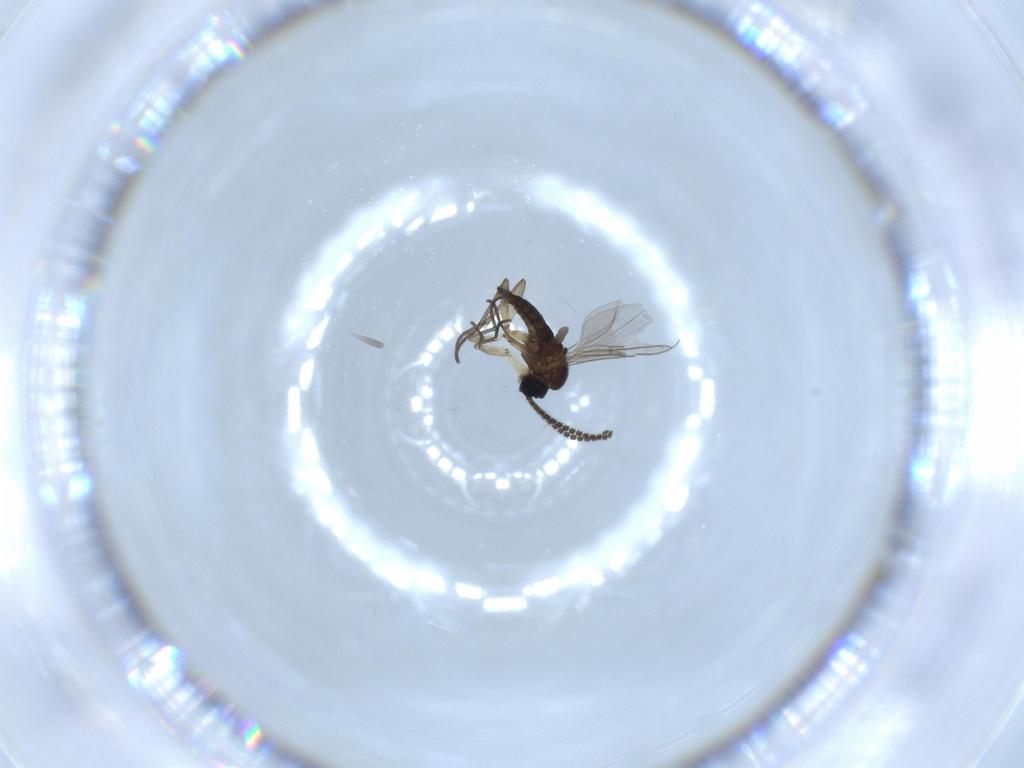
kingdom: Animalia
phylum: Arthropoda
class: Insecta
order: Diptera
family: Sciaridae
